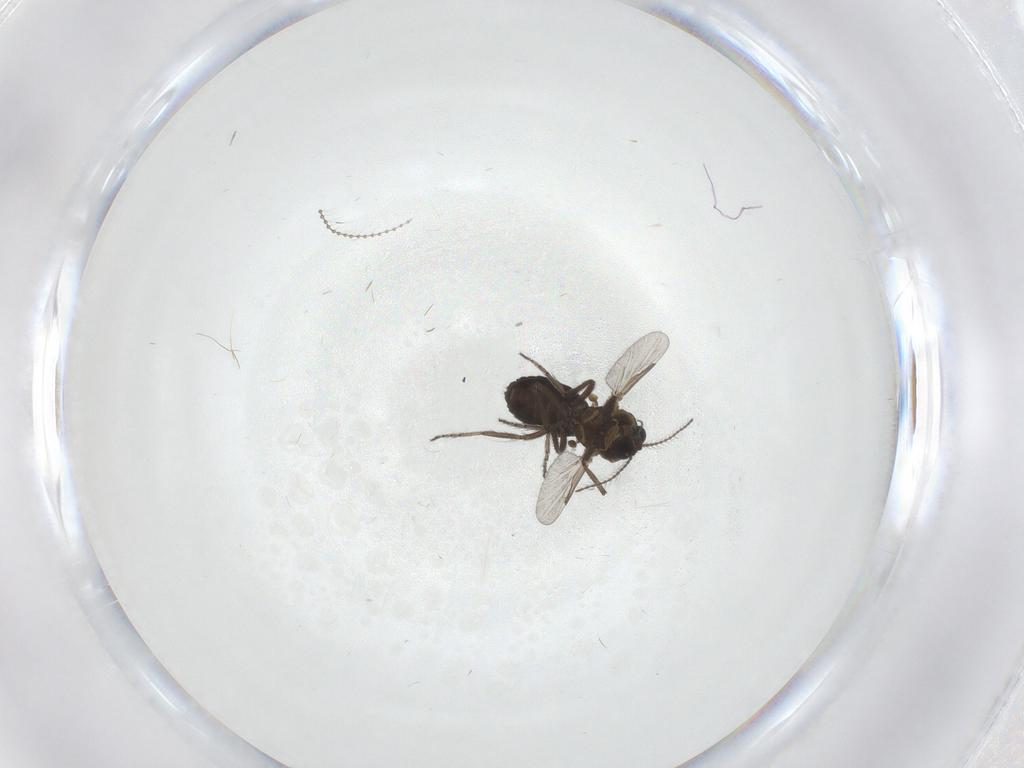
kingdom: Animalia
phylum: Arthropoda
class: Insecta
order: Diptera
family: Ceratopogonidae
